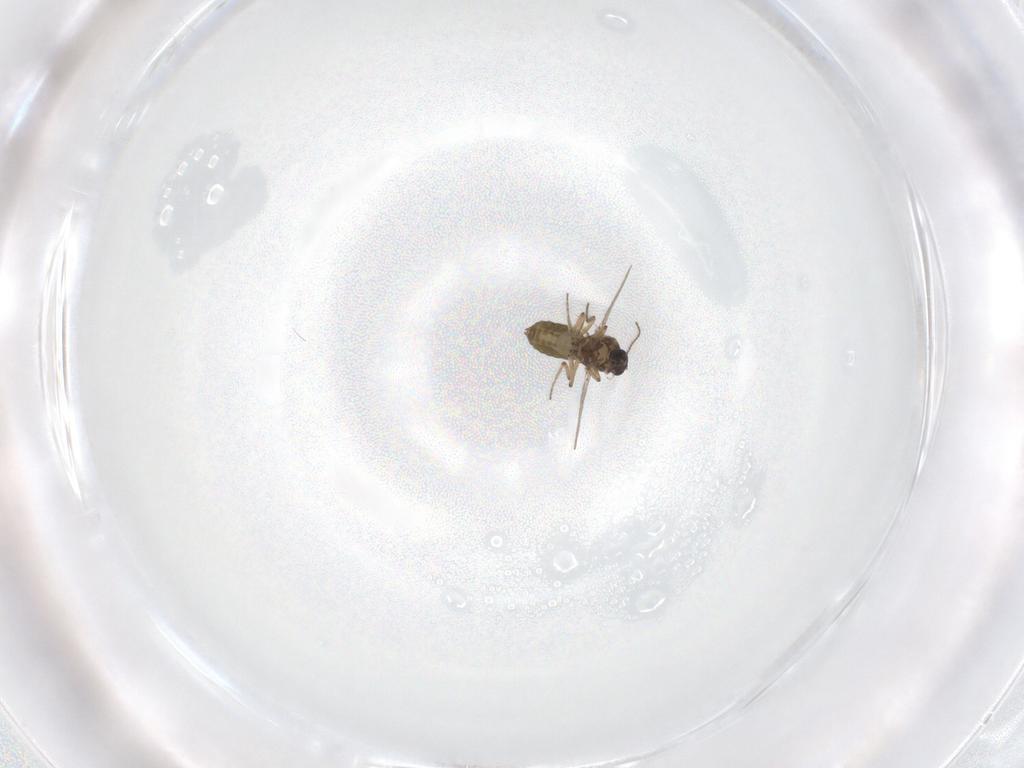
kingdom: Animalia
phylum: Arthropoda
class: Insecta
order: Diptera
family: Ceratopogonidae
